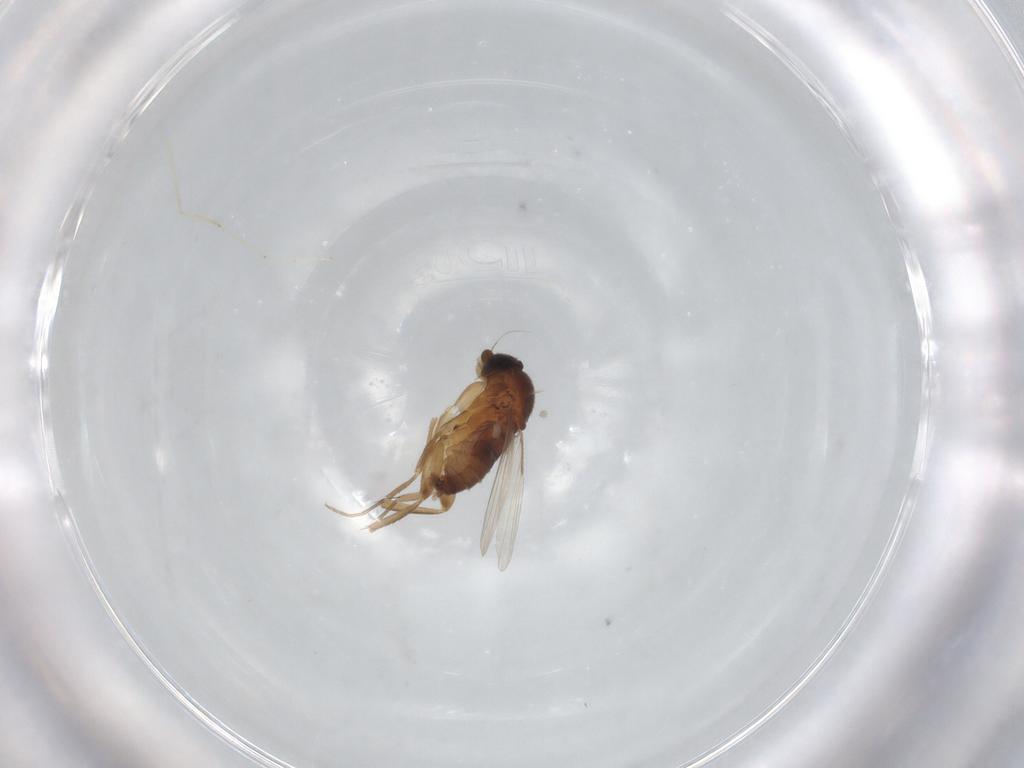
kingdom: Animalia
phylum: Arthropoda
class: Insecta
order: Diptera
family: Phoridae
